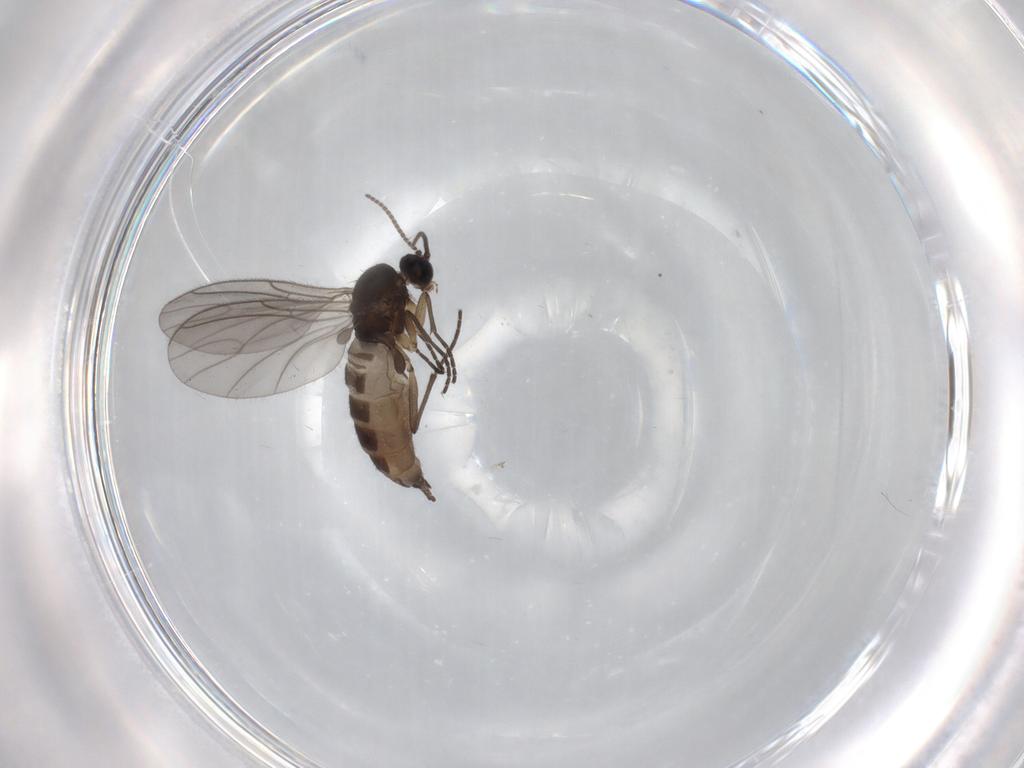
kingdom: Animalia
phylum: Arthropoda
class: Insecta
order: Diptera
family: Sciaridae
